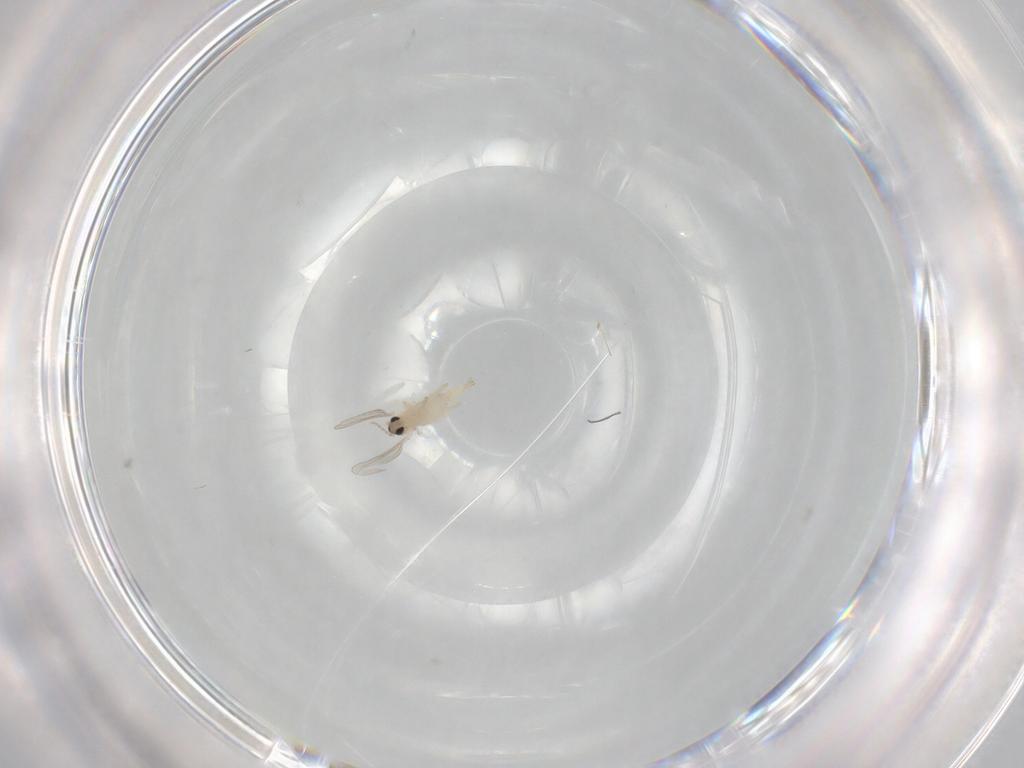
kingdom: Animalia
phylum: Arthropoda
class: Insecta
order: Diptera
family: Cecidomyiidae
